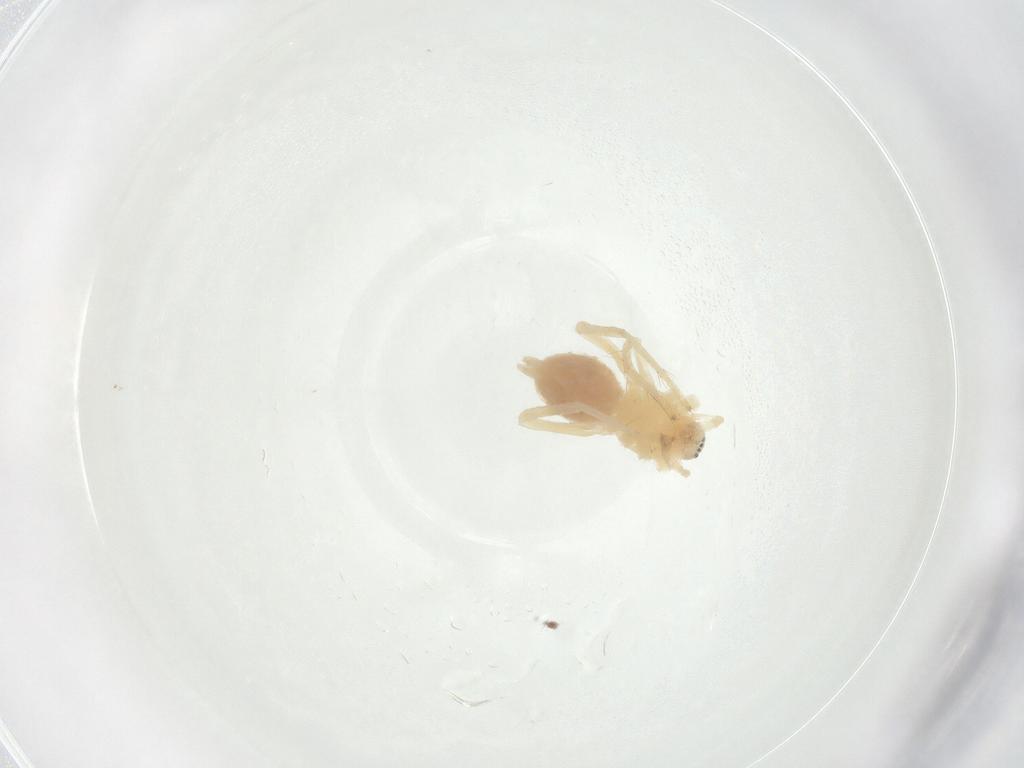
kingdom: Animalia
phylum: Arthropoda
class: Arachnida
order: Araneae
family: Anyphaenidae
